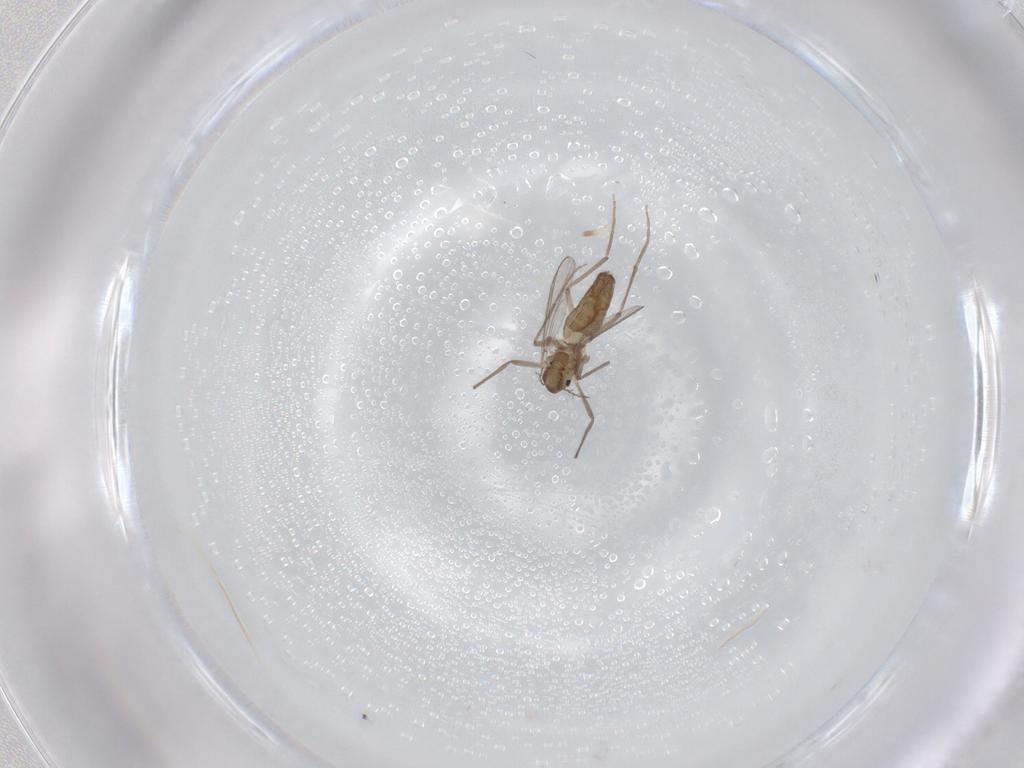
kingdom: Animalia
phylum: Arthropoda
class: Insecta
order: Diptera
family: Chironomidae
